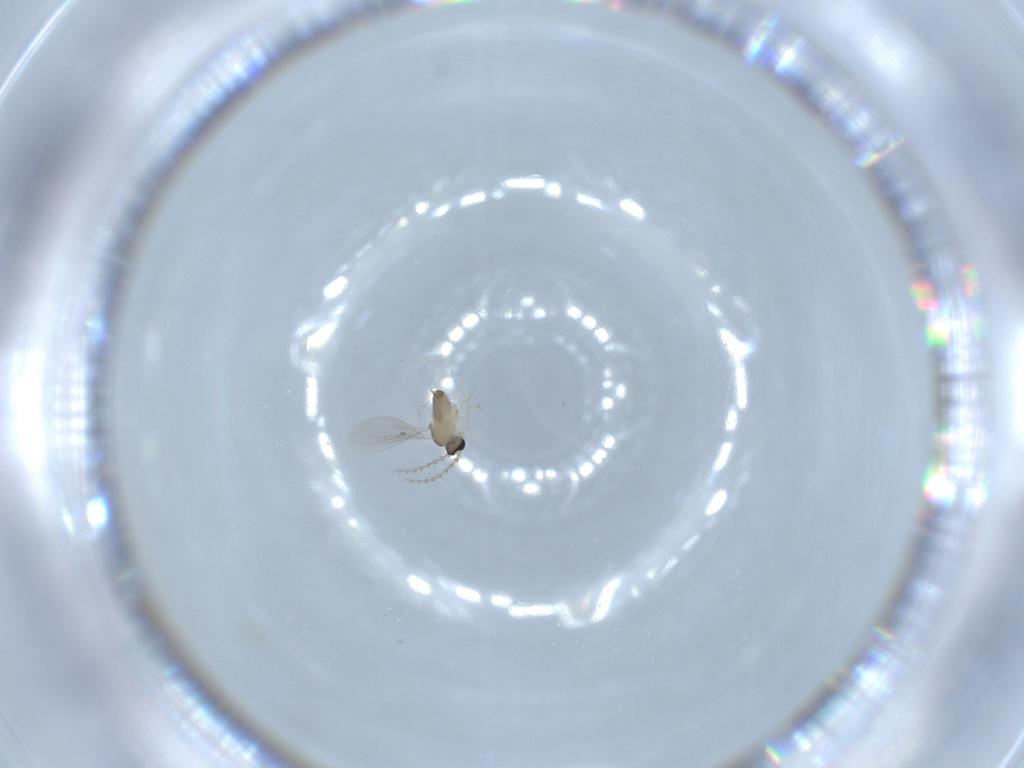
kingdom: Animalia
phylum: Arthropoda
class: Insecta
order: Diptera
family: Cecidomyiidae
